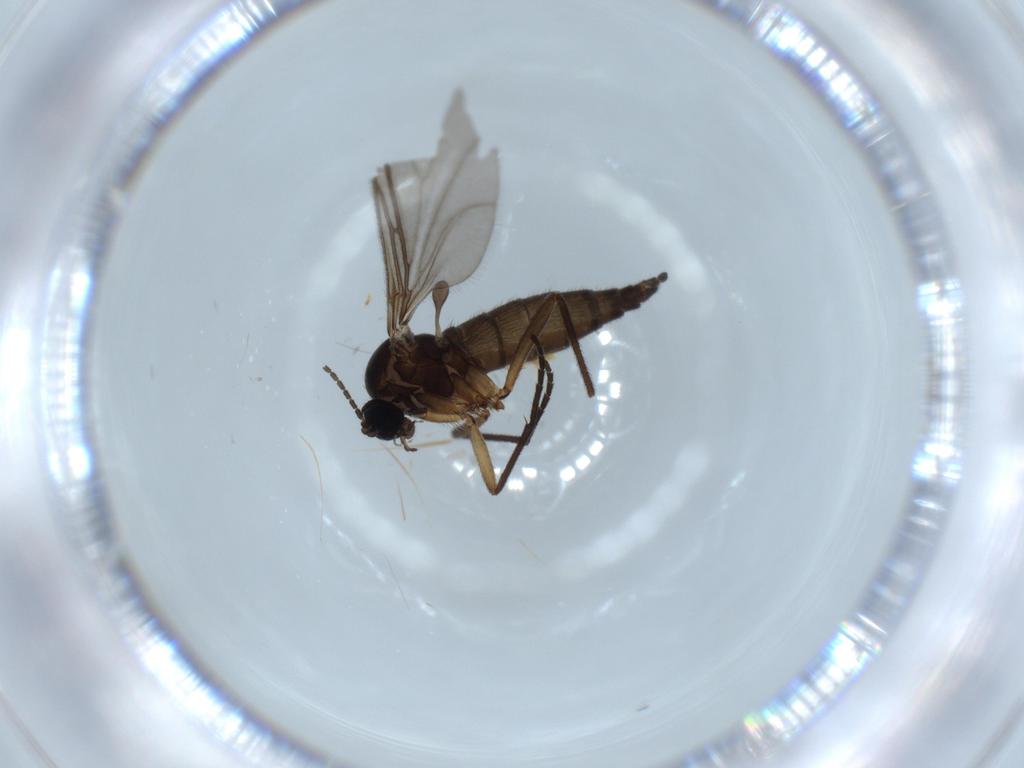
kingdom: Animalia
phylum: Arthropoda
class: Insecta
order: Diptera
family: Sciaridae
